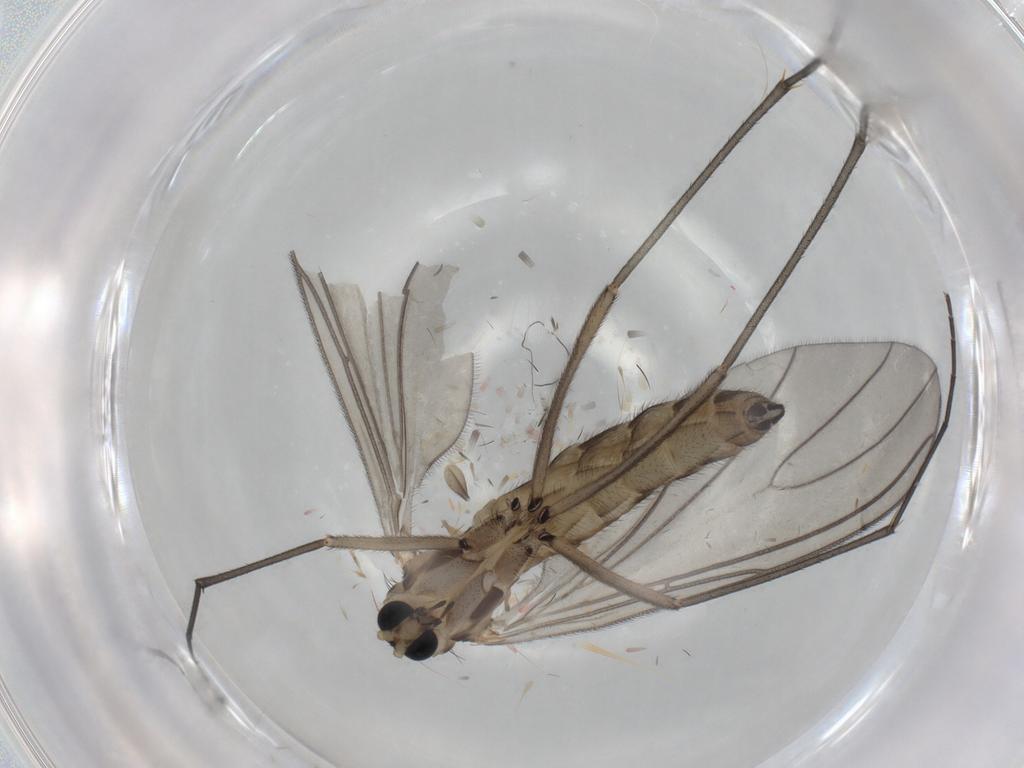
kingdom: Animalia
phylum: Arthropoda
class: Insecta
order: Diptera
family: Sciaridae
